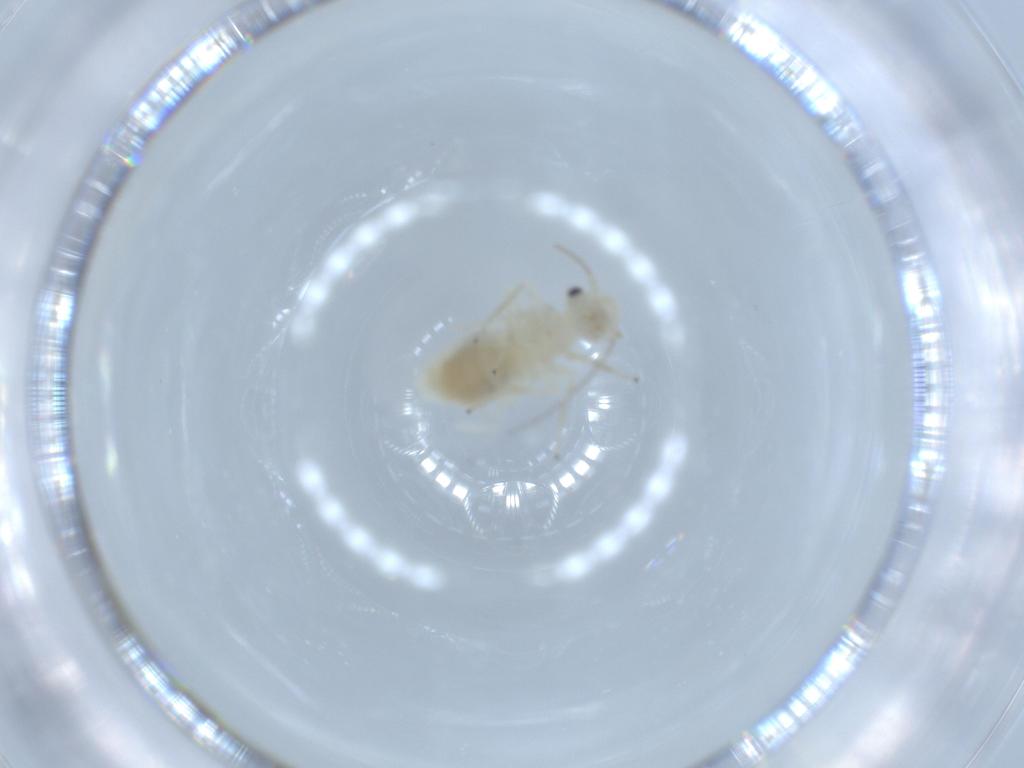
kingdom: Animalia
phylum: Arthropoda
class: Insecta
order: Psocodea
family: Caeciliusidae
